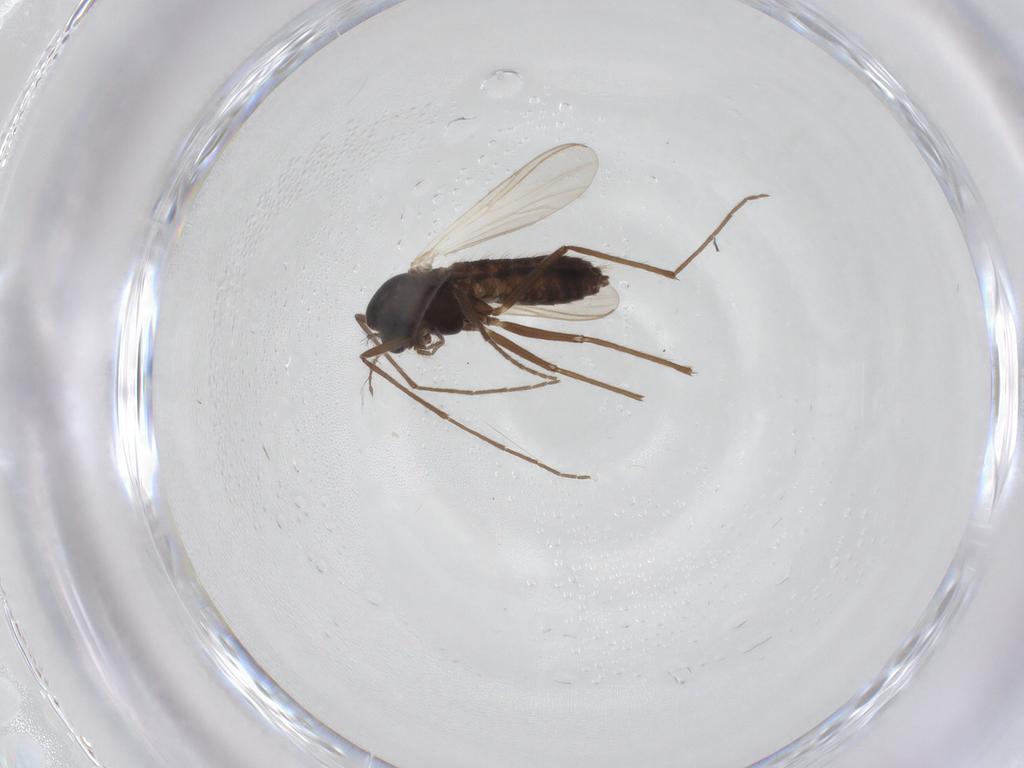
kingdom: Animalia
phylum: Arthropoda
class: Insecta
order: Diptera
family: Chironomidae
